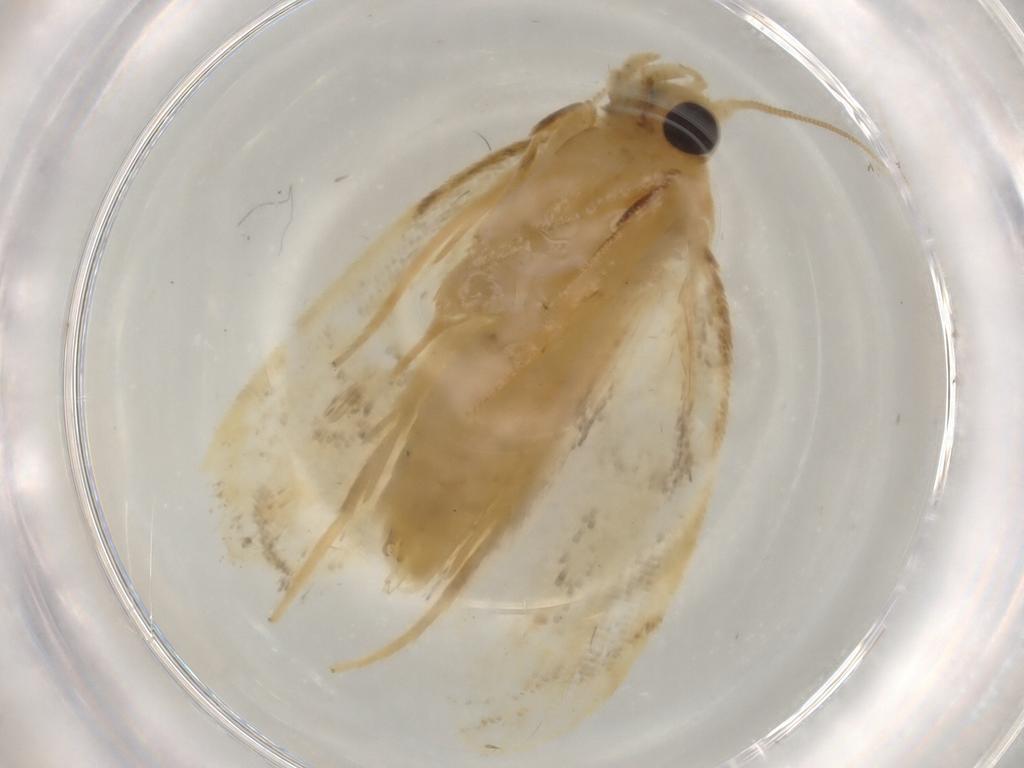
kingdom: Animalia
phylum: Arthropoda
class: Insecta
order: Lepidoptera
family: Psychidae
